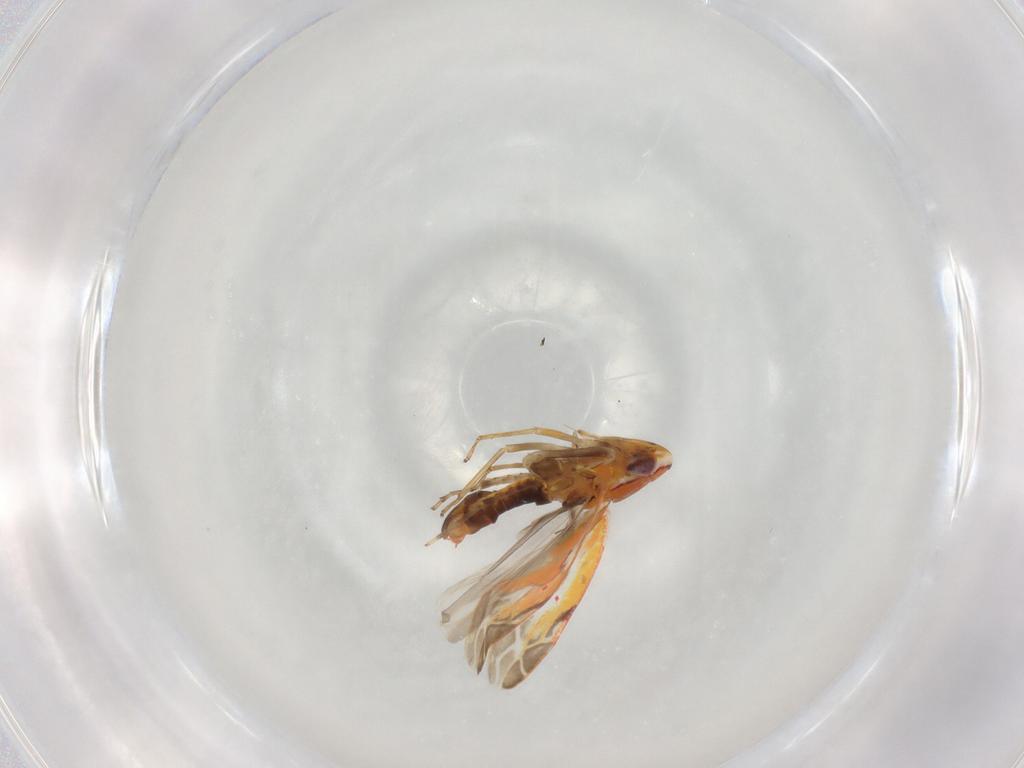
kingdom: Animalia
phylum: Arthropoda
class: Insecta
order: Hemiptera
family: Cicadellidae
